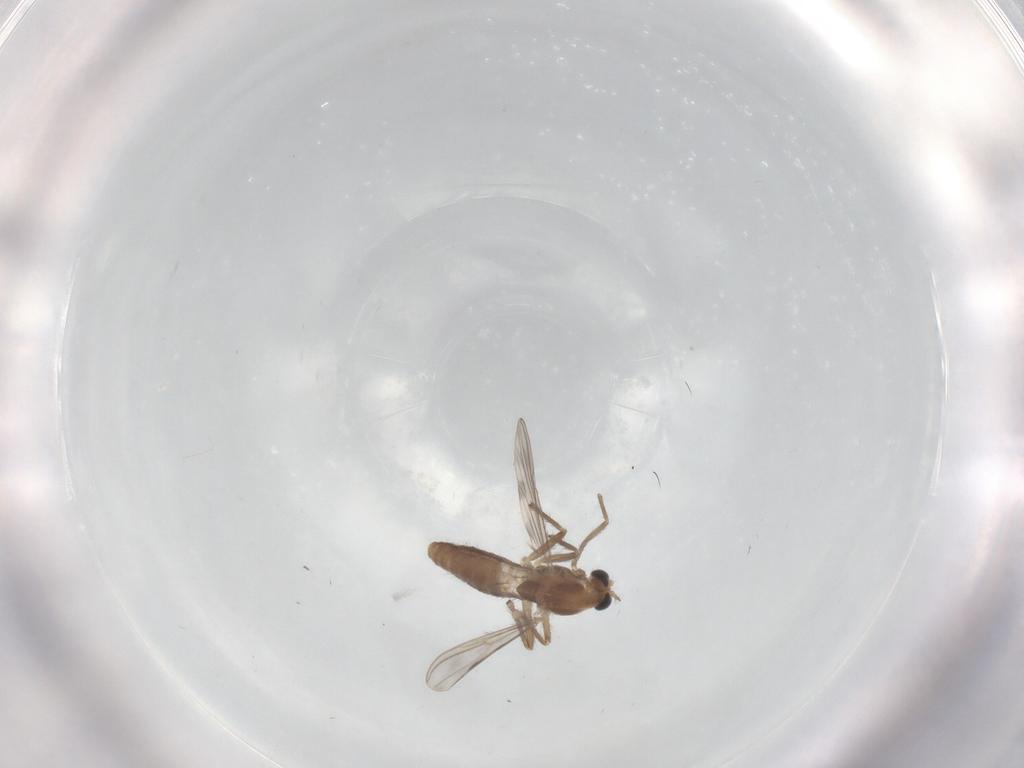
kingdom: Animalia
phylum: Arthropoda
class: Insecta
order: Diptera
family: Chironomidae
